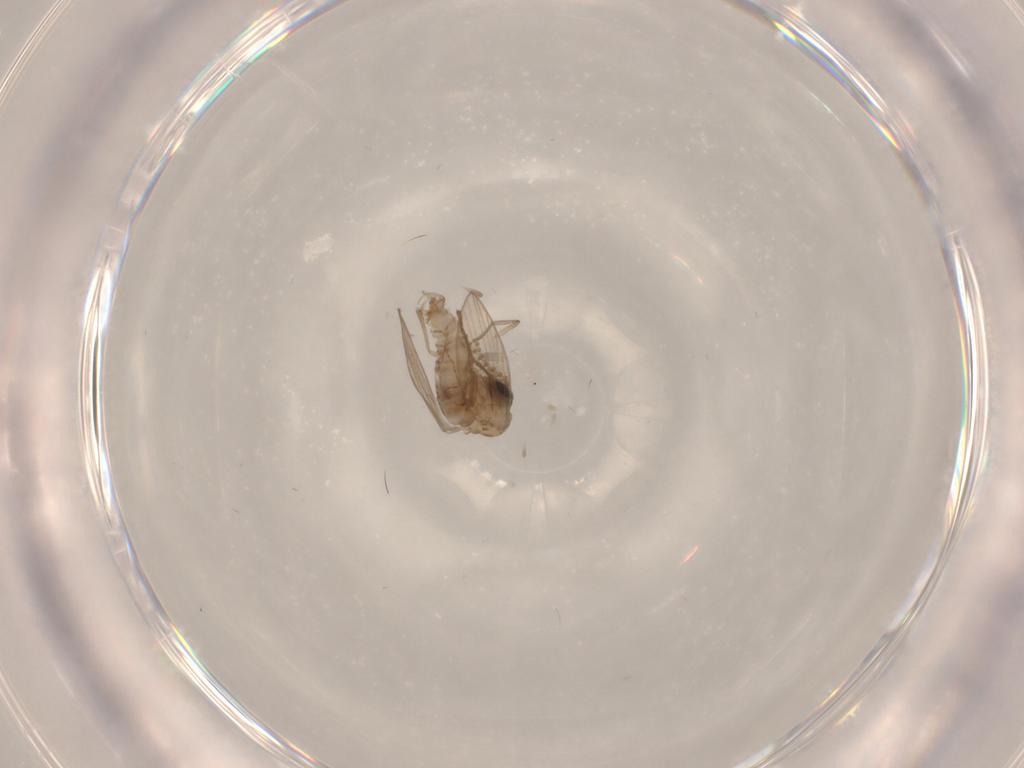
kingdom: Animalia
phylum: Arthropoda
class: Insecta
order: Diptera
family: Psychodidae
